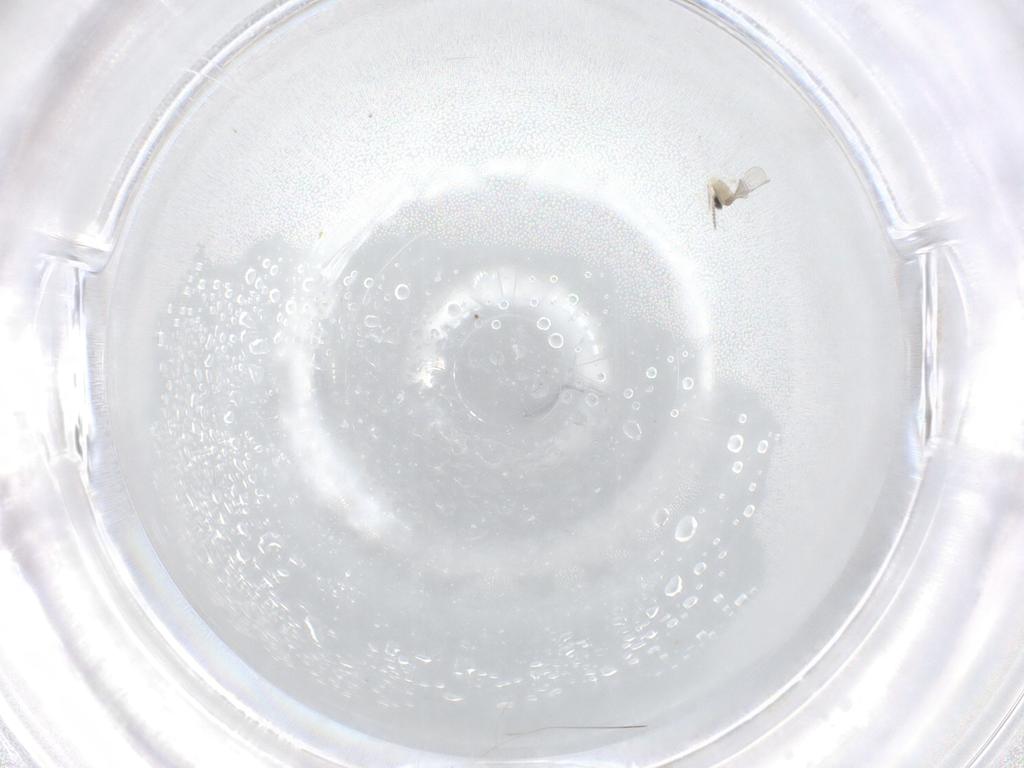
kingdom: Animalia
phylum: Arthropoda
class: Insecta
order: Diptera
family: Cecidomyiidae
